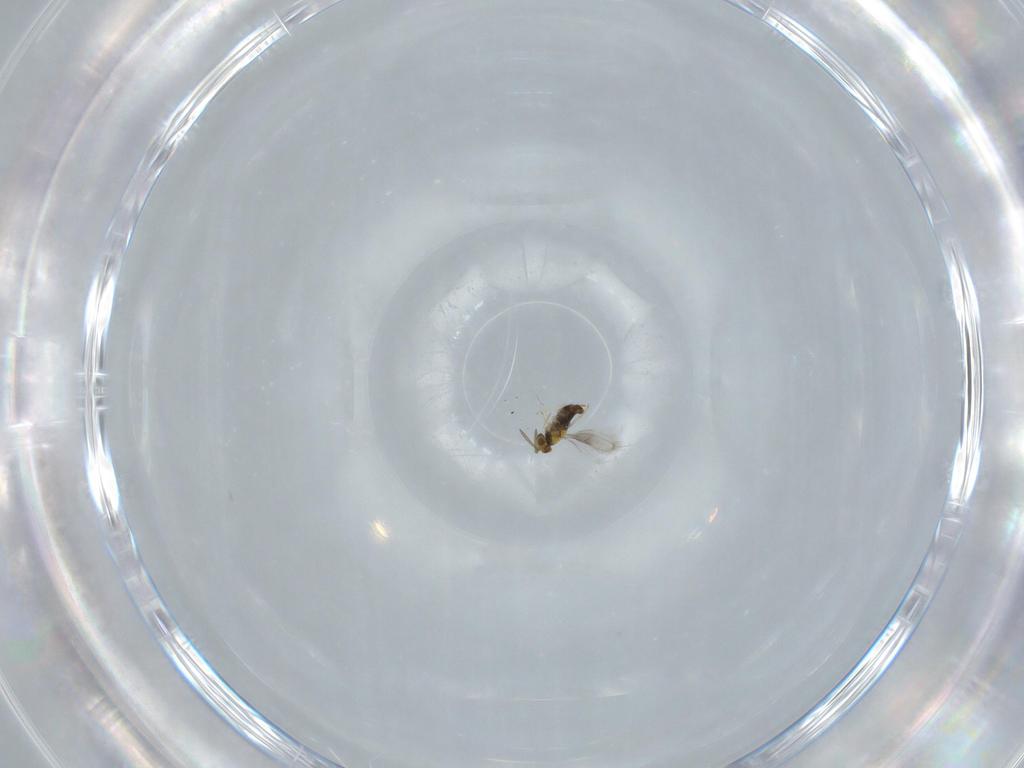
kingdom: Animalia
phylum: Arthropoda
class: Insecta
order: Hymenoptera
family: Aphelinidae
